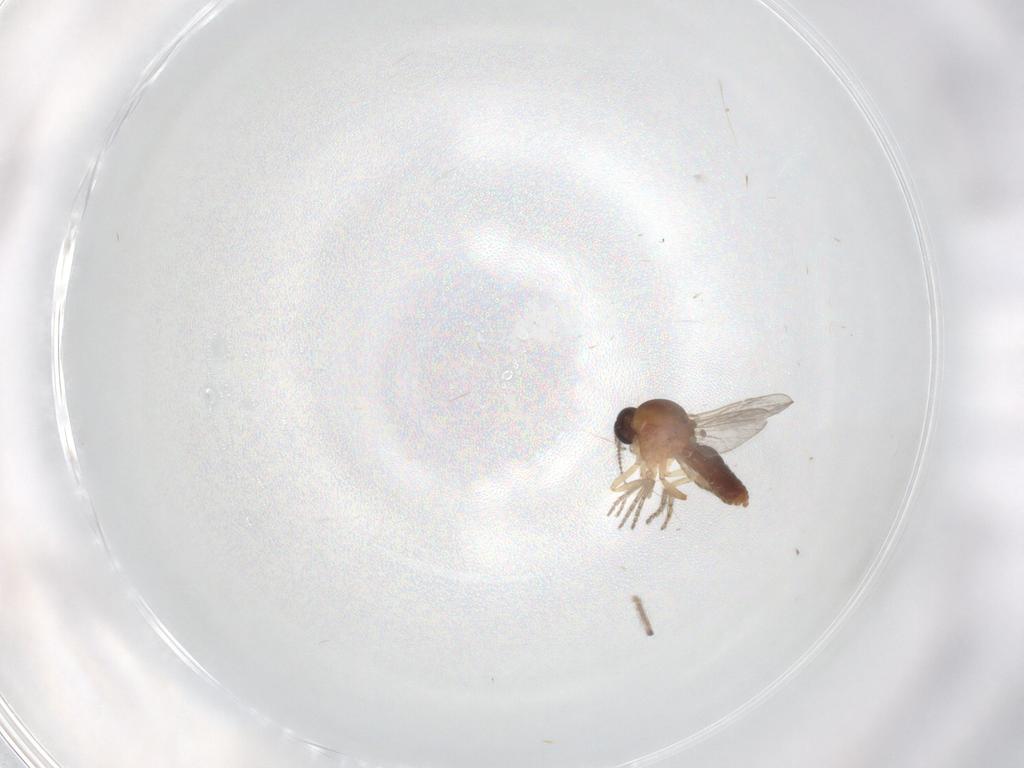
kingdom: Animalia
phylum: Arthropoda
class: Insecta
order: Diptera
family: Ceratopogonidae
